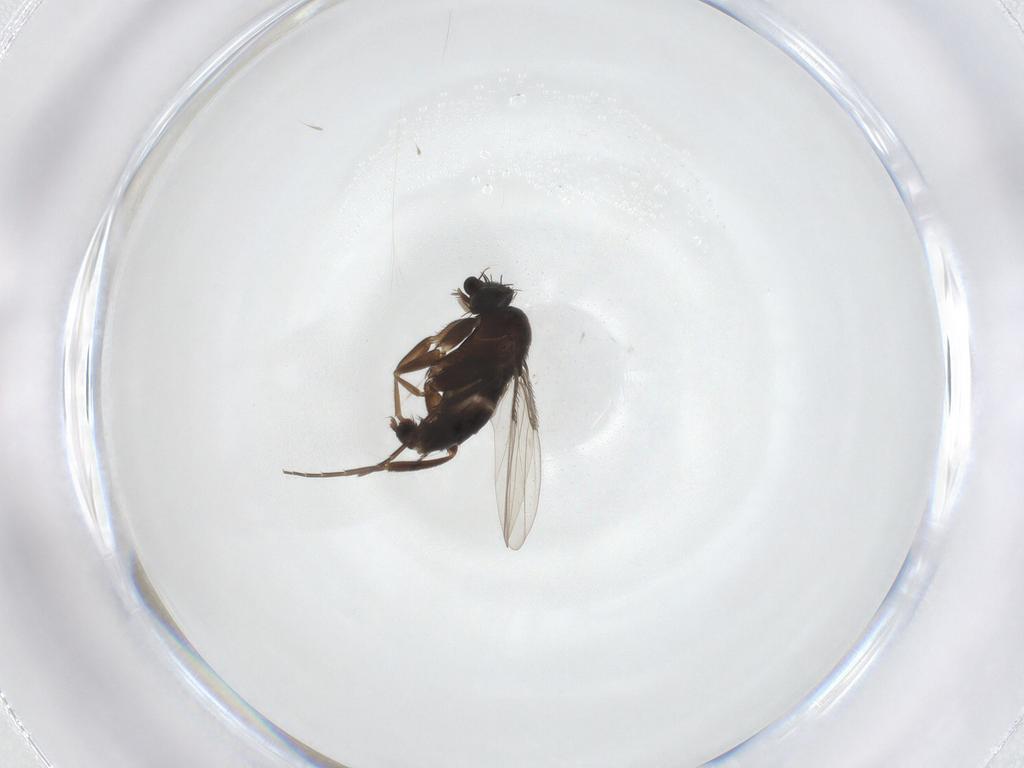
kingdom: Animalia
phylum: Arthropoda
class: Insecta
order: Diptera
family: Phoridae
